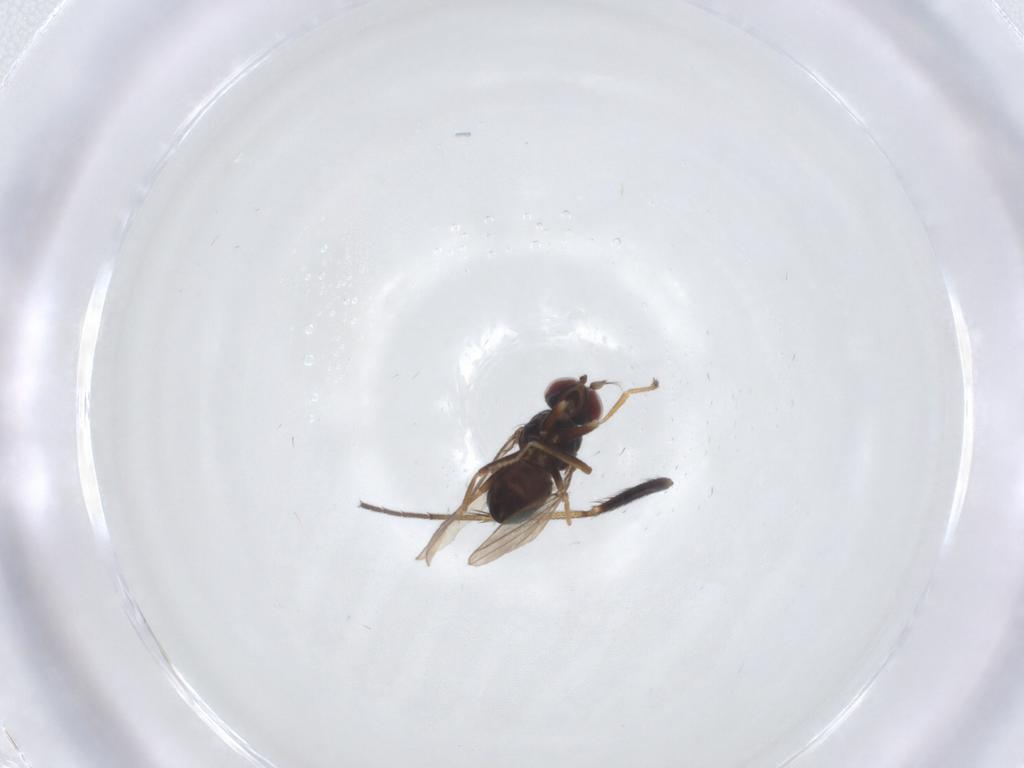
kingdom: Animalia
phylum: Arthropoda
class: Insecta
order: Diptera
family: Ephydridae
